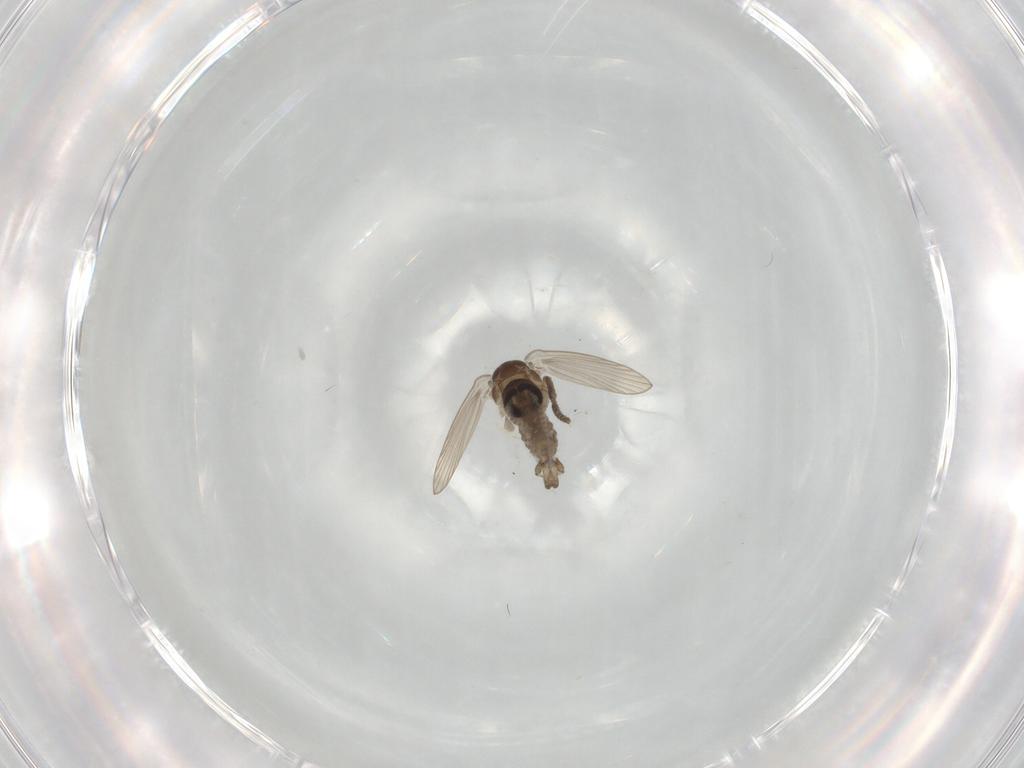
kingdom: Animalia
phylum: Arthropoda
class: Insecta
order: Diptera
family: Psychodidae
